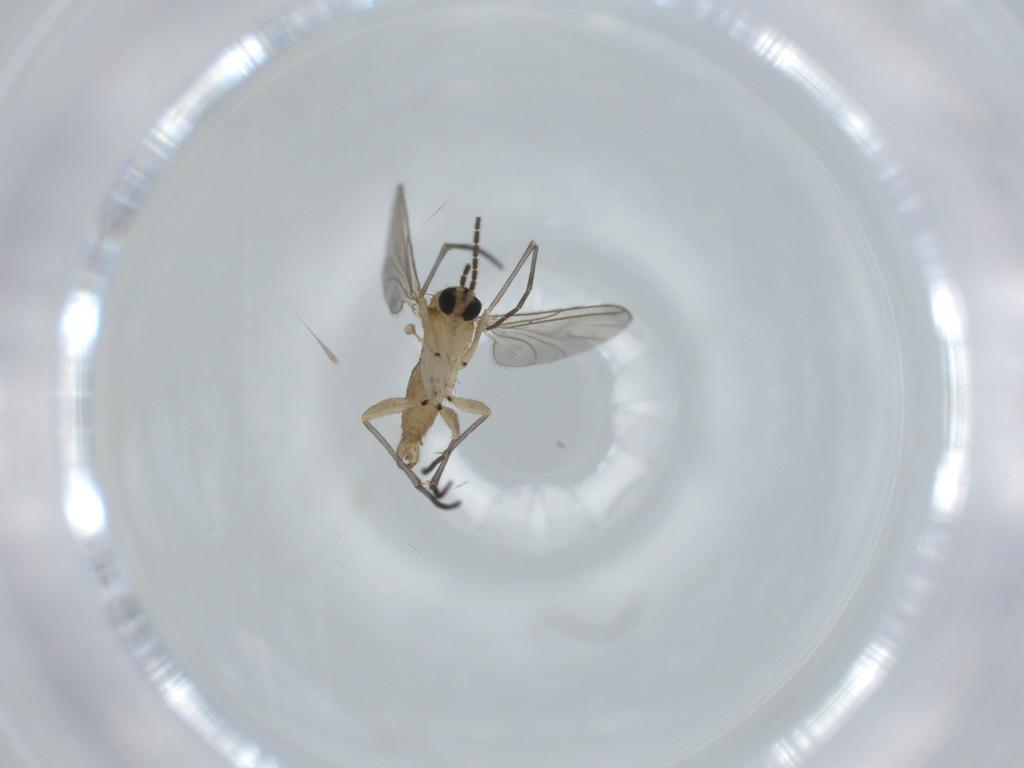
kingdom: Animalia
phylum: Arthropoda
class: Insecta
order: Diptera
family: Sciaridae
